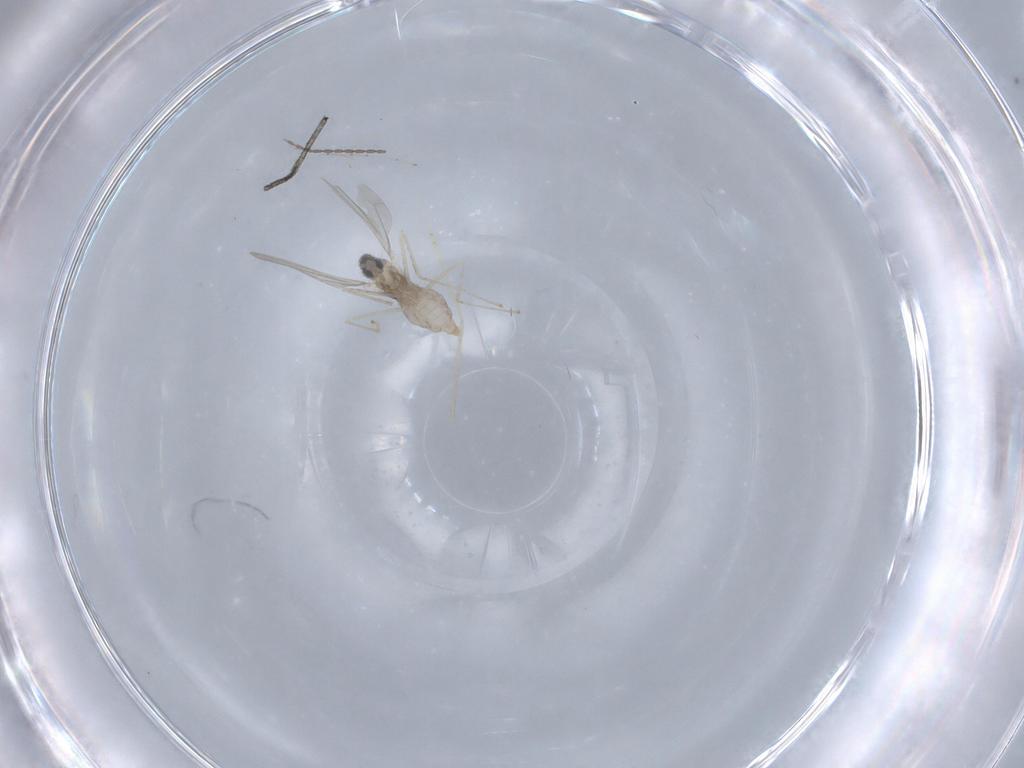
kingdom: Animalia
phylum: Arthropoda
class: Insecta
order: Diptera
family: Cecidomyiidae
